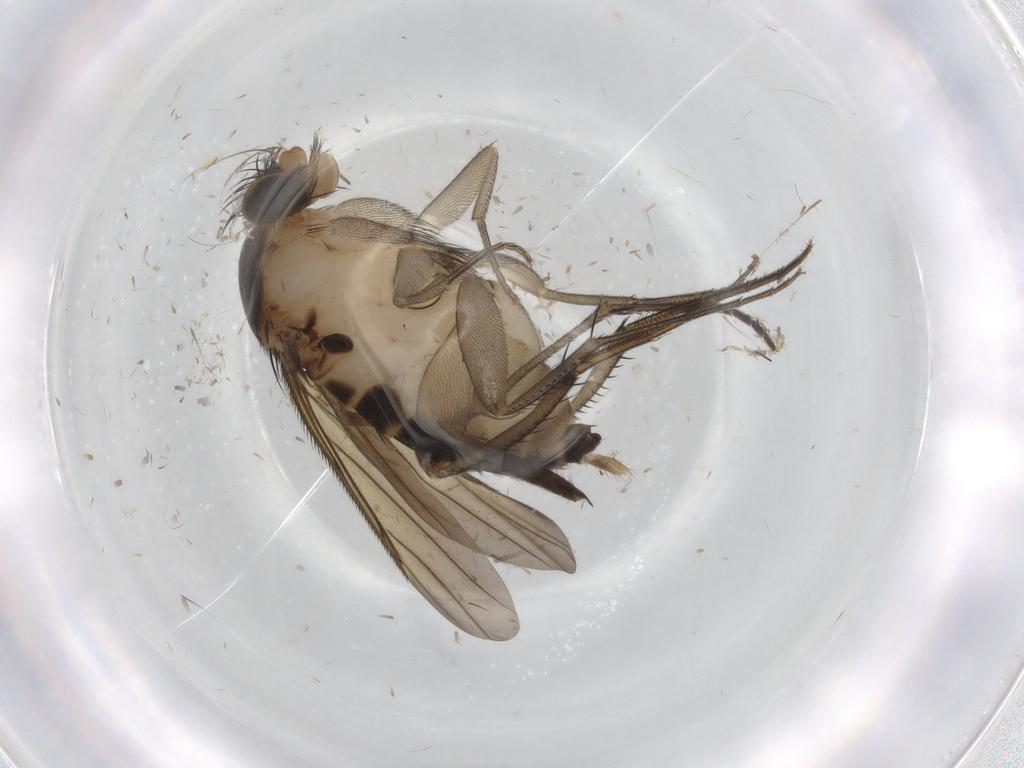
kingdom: Animalia
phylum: Arthropoda
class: Insecta
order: Diptera
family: Phoridae
